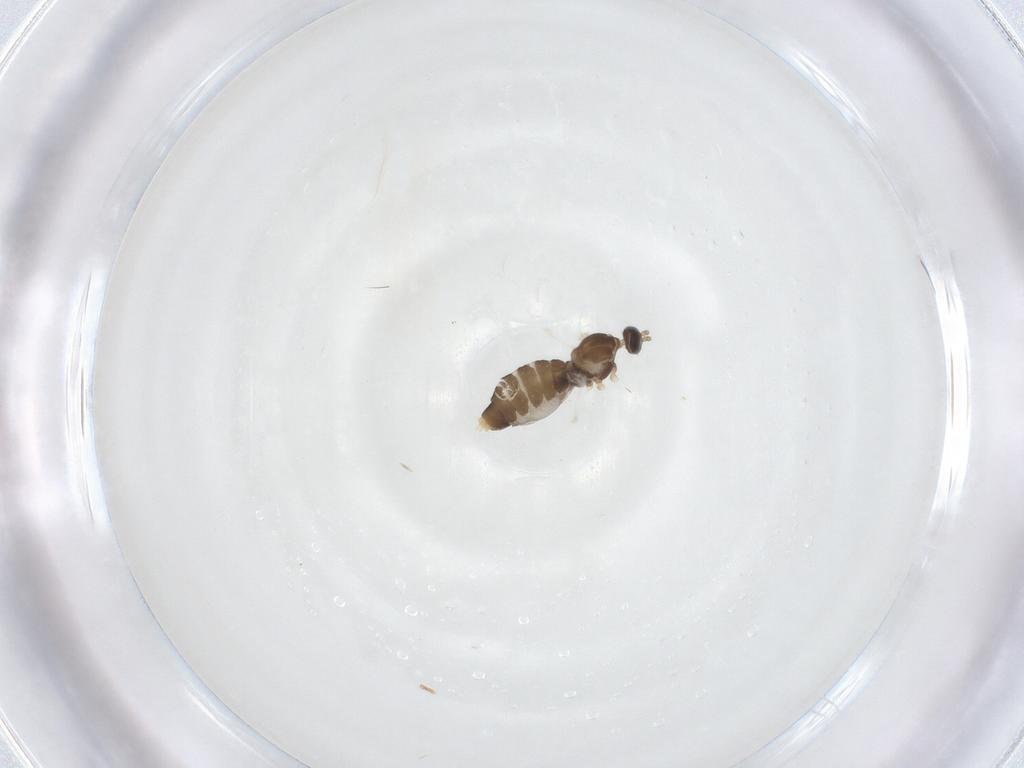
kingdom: Animalia
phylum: Arthropoda
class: Insecta
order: Diptera
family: Cecidomyiidae
